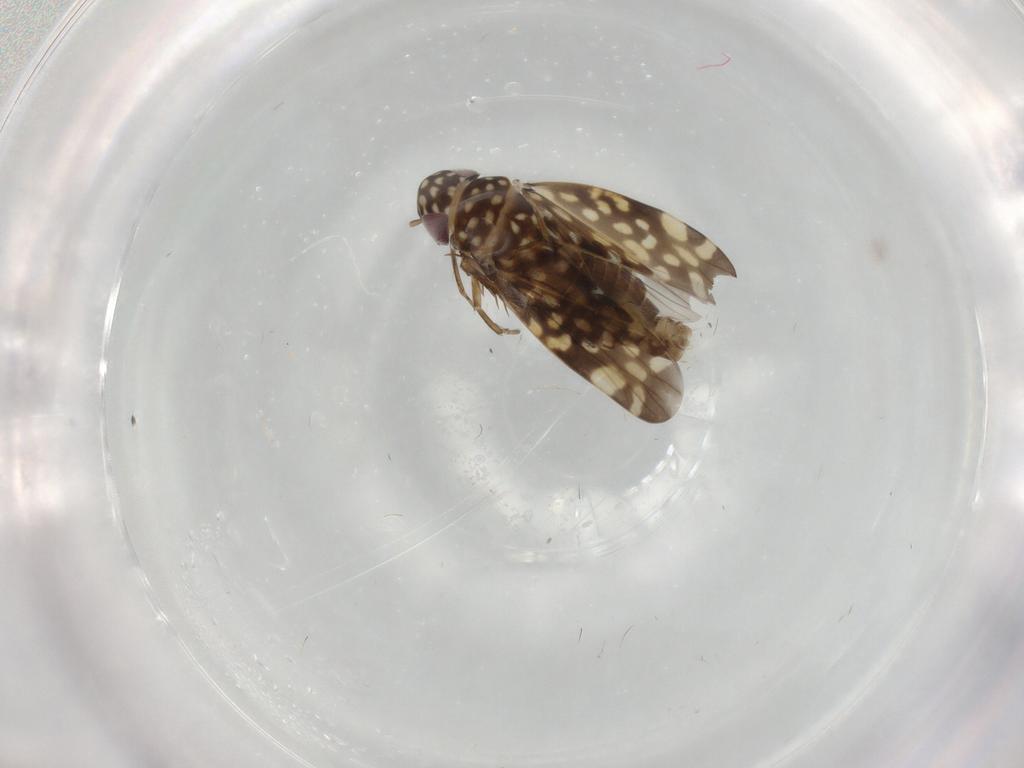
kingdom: Animalia
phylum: Arthropoda
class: Insecta
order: Hemiptera
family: Cicadellidae
